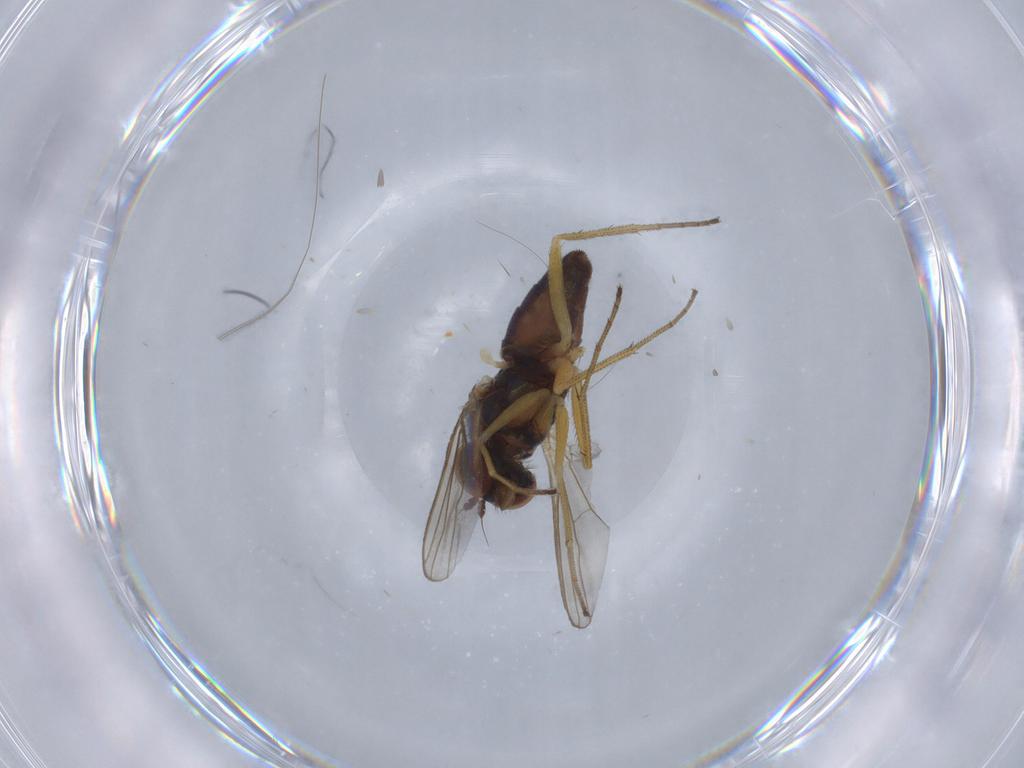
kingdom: Animalia
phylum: Arthropoda
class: Insecta
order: Diptera
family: Dolichopodidae
